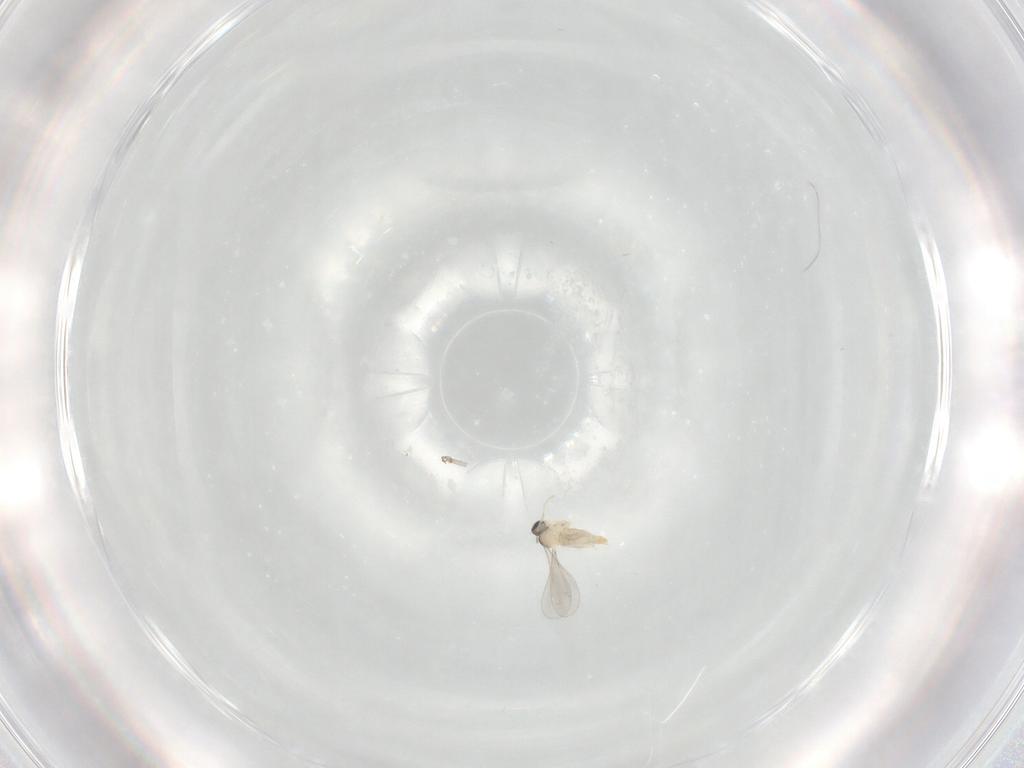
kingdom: Animalia
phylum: Arthropoda
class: Insecta
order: Diptera
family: Cecidomyiidae
